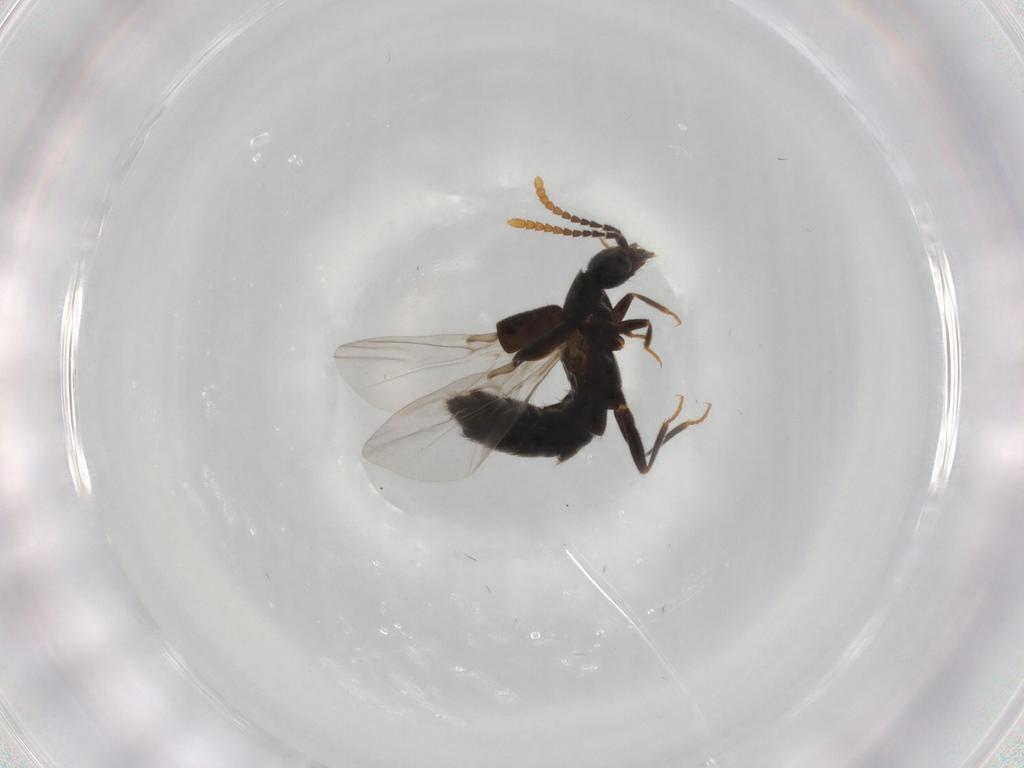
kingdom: Animalia
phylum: Arthropoda
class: Insecta
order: Coleoptera
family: Staphylinidae
